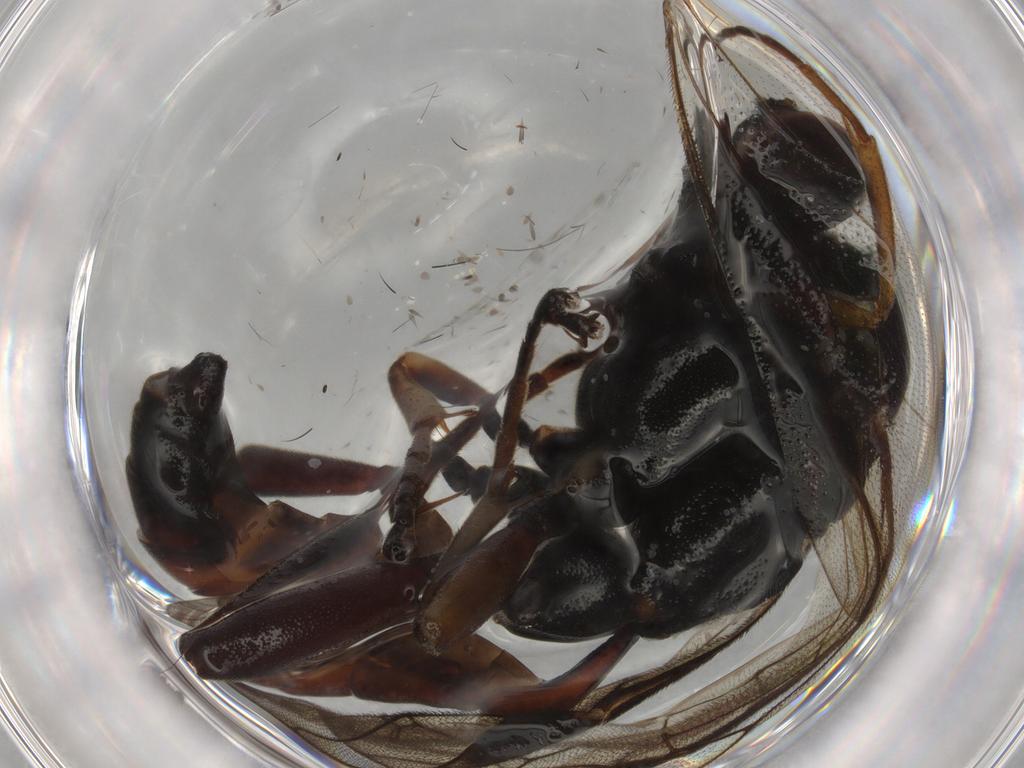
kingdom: Animalia
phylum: Arthropoda
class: Insecta
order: Hymenoptera
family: Ichneumonidae
